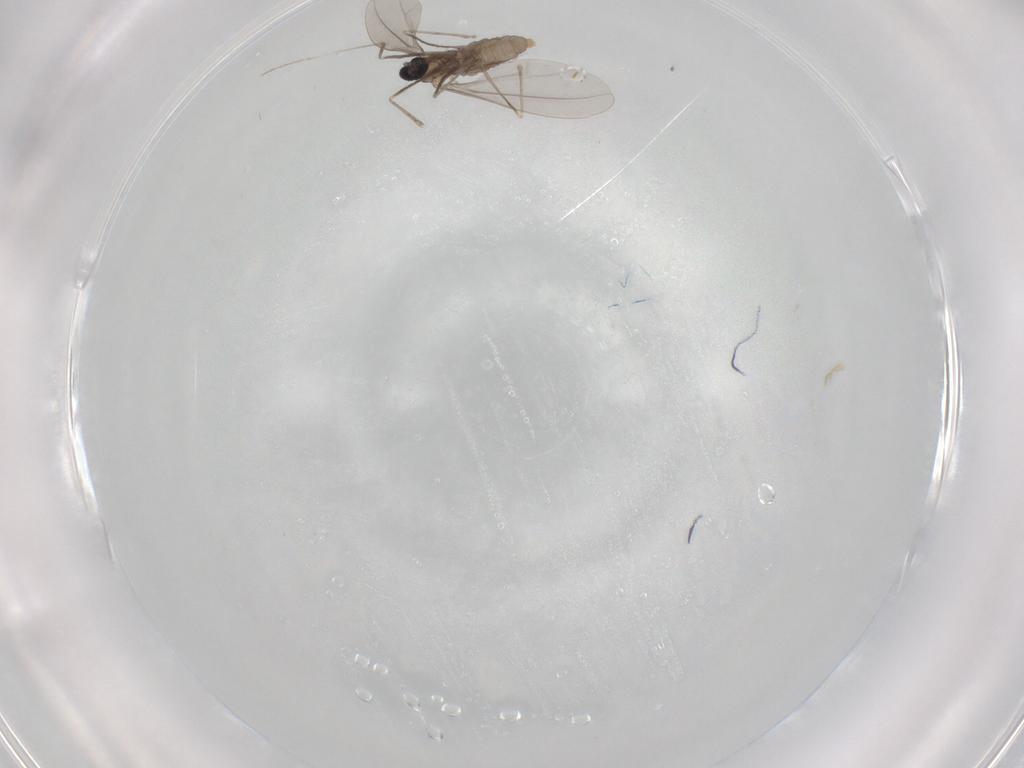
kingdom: Animalia
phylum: Arthropoda
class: Insecta
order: Diptera
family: Cecidomyiidae
